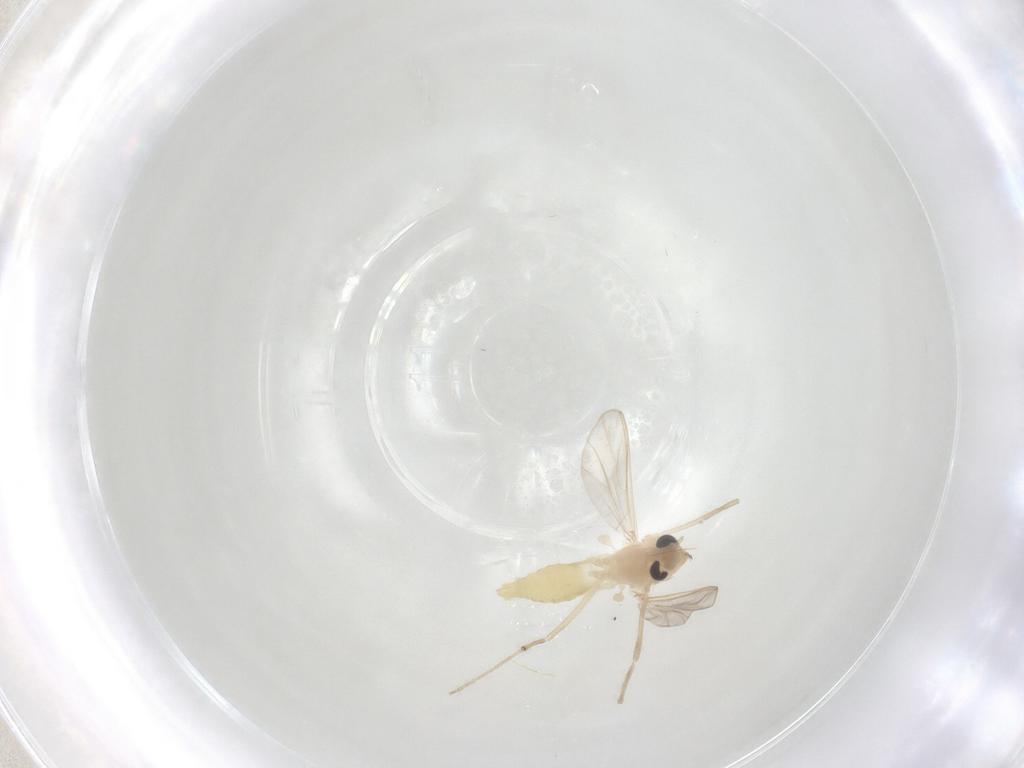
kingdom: Animalia
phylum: Arthropoda
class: Insecta
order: Diptera
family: Chironomidae
